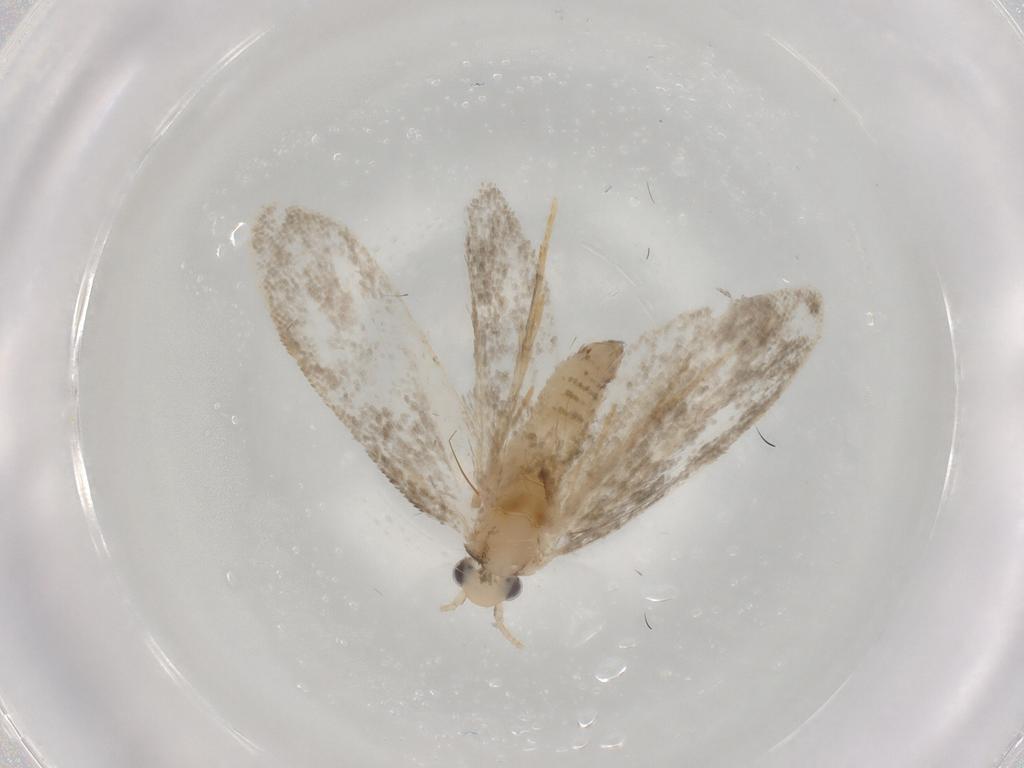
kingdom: Animalia
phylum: Arthropoda
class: Insecta
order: Lepidoptera
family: Psychidae
